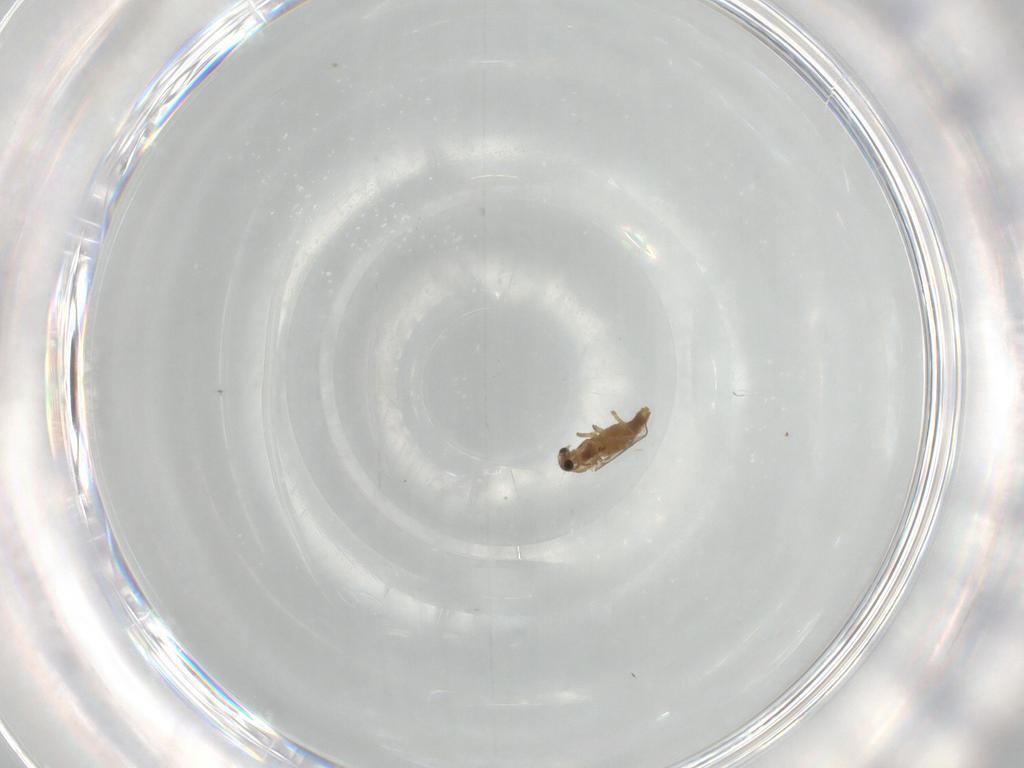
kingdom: Animalia
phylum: Arthropoda
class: Insecta
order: Diptera
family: Chironomidae
